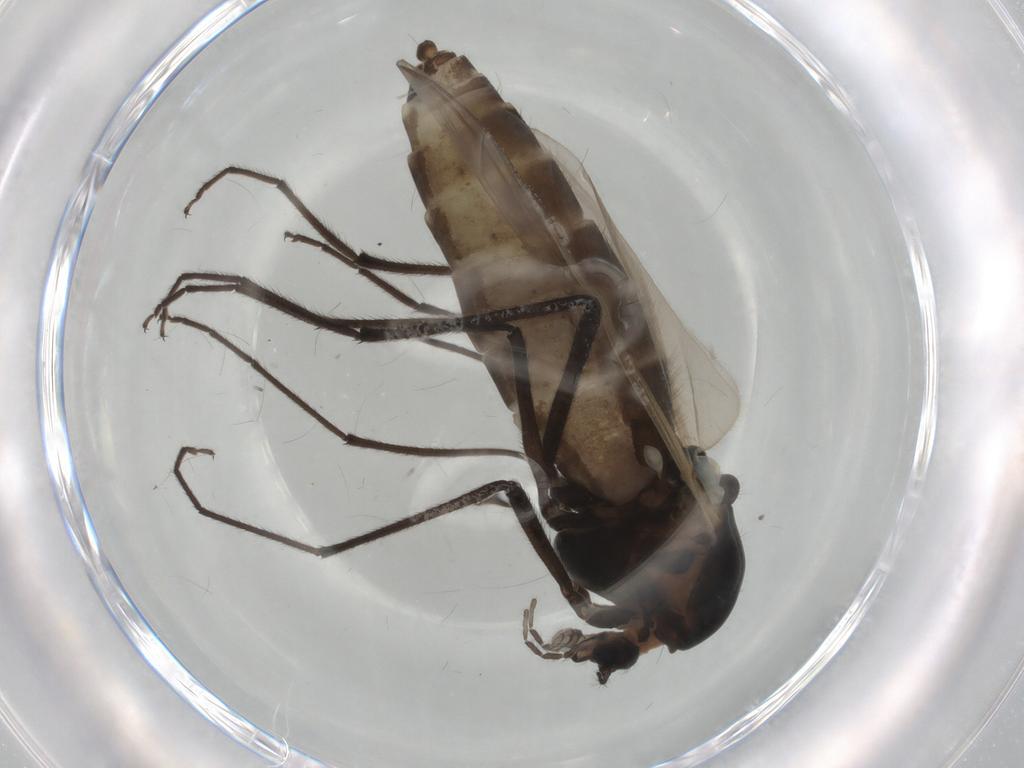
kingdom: Animalia
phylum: Arthropoda
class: Insecta
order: Diptera
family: Chironomidae
